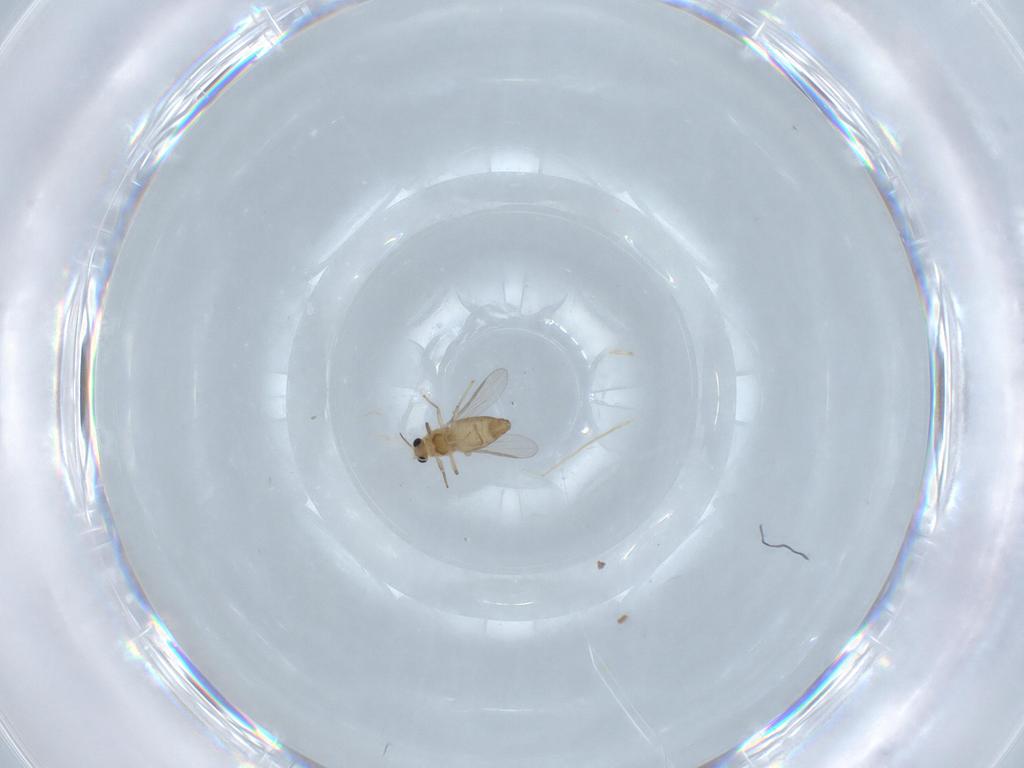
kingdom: Animalia
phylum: Arthropoda
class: Insecta
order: Diptera
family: Chironomidae
